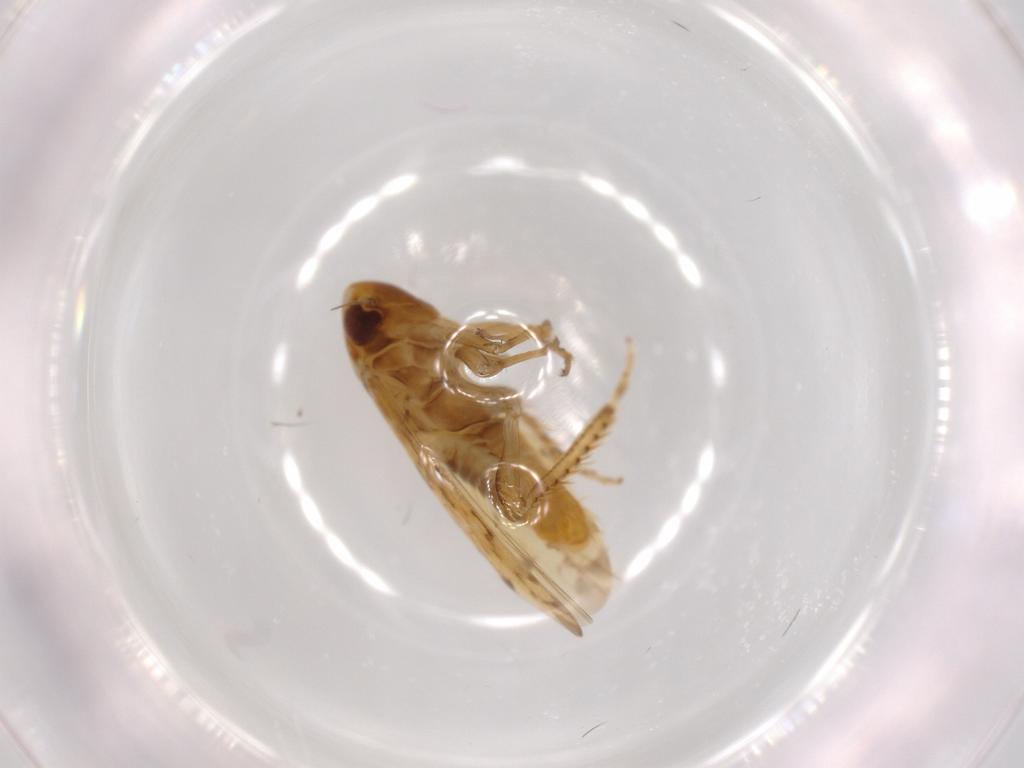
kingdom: Animalia
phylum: Arthropoda
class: Insecta
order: Hemiptera
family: Cicadellidae
